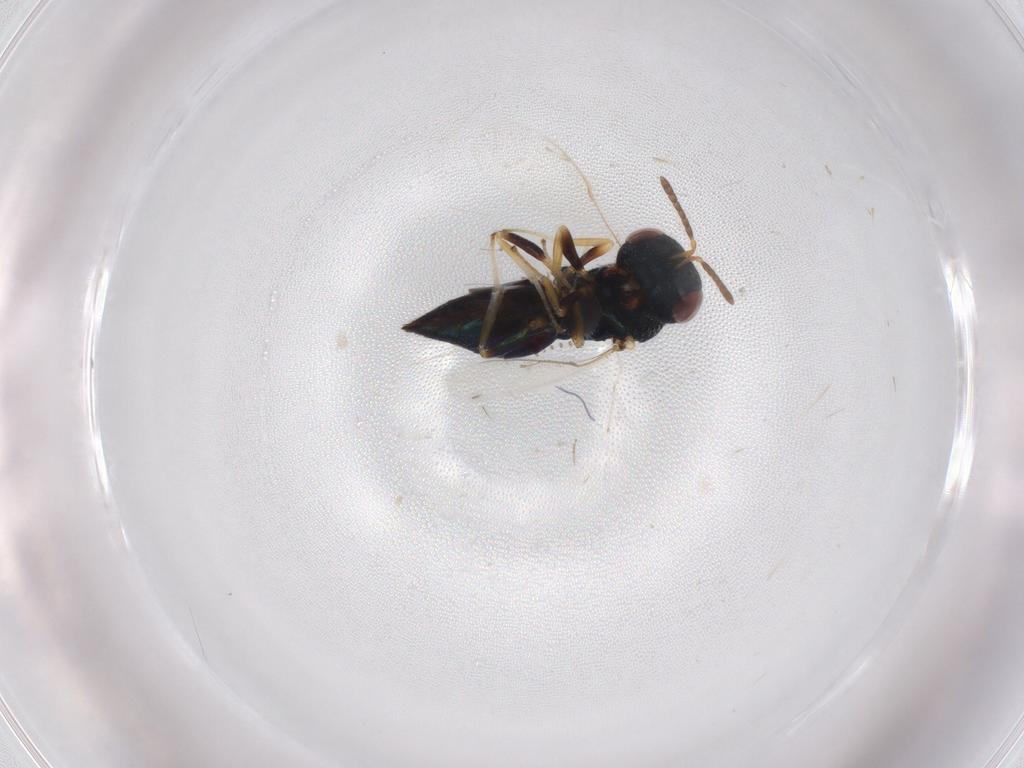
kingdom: Animalia
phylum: Arthropoda
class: Insecta
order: Hymenoptera
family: Pteromalidae
